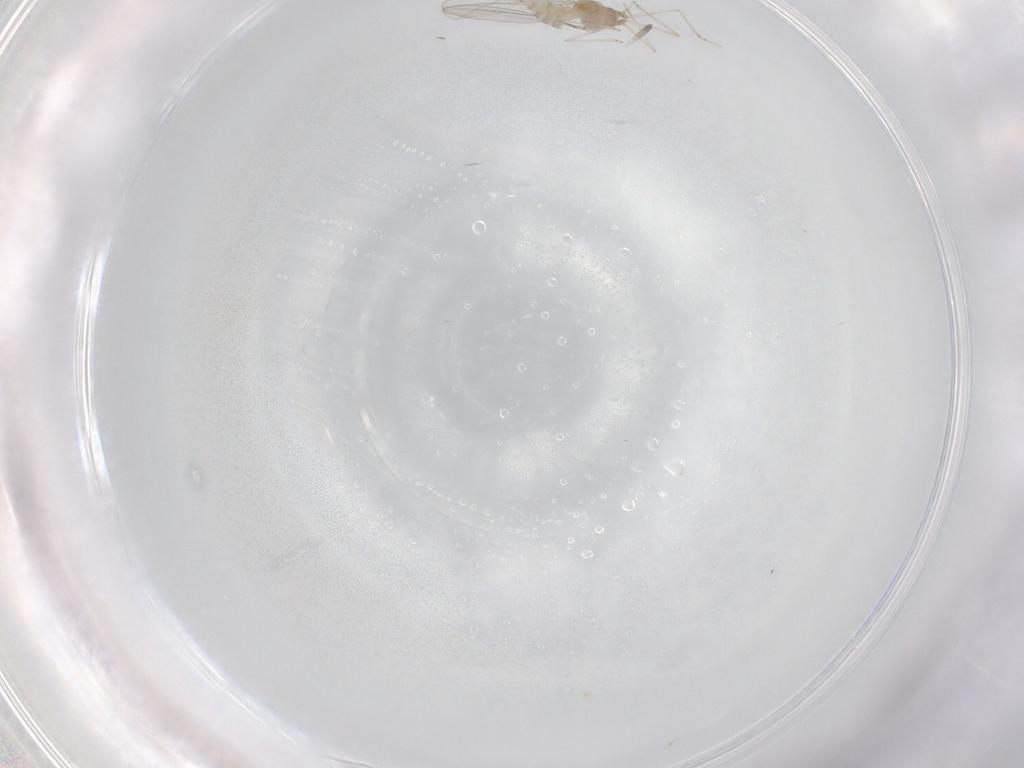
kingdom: Animalia
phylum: Arthropoda
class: Insecta
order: Diptera
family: Cecidomyiidae
